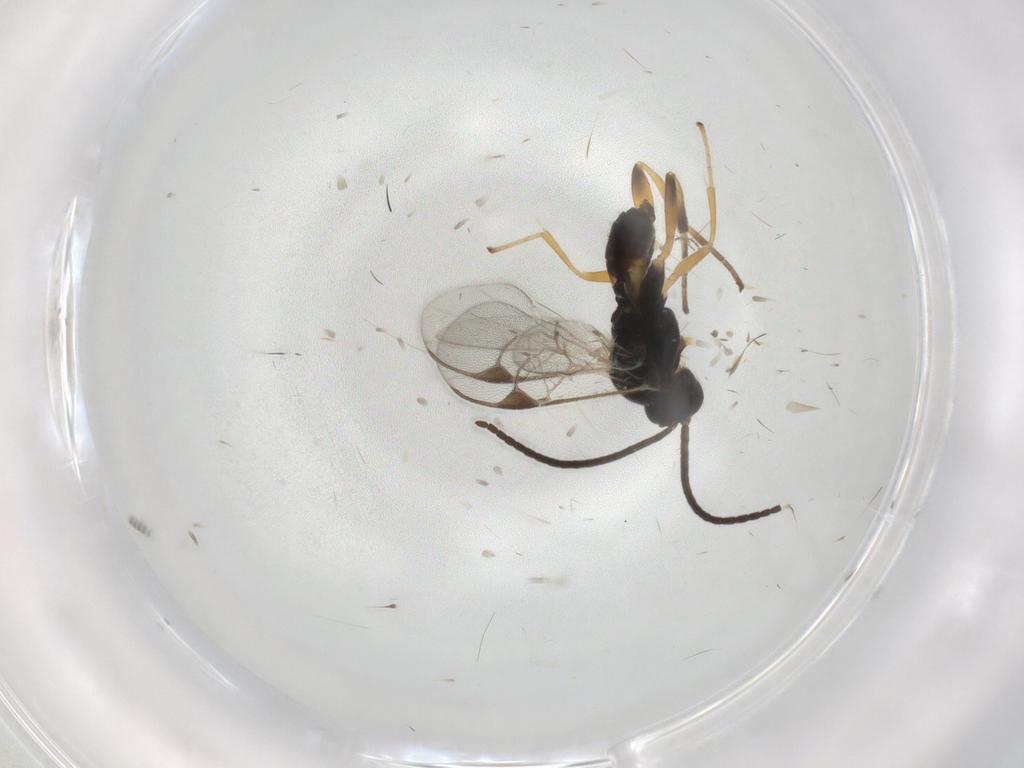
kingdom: Animalia
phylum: Arthropoda
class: Insecta
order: Hymenoptera
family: Braconidae
